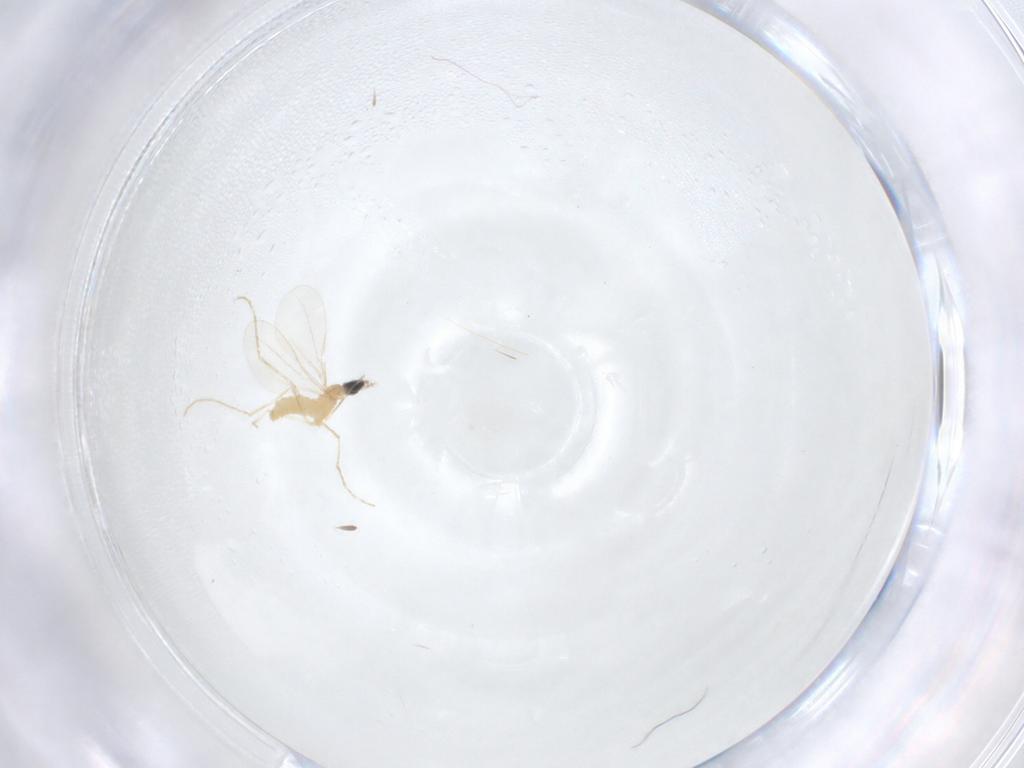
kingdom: Animalia
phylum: Arthropoda
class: Insecta
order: Diptera
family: Cecidomyiidae
